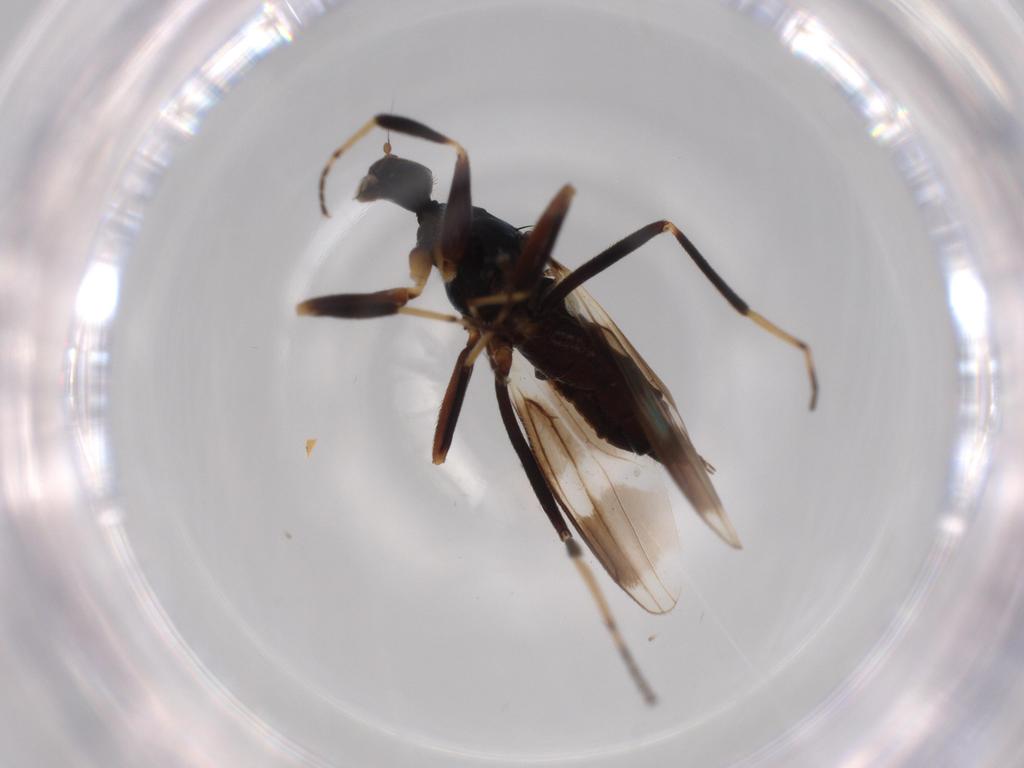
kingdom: Animalia
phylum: Arthropoda
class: Insecta
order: Diptera
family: Hybotidae
